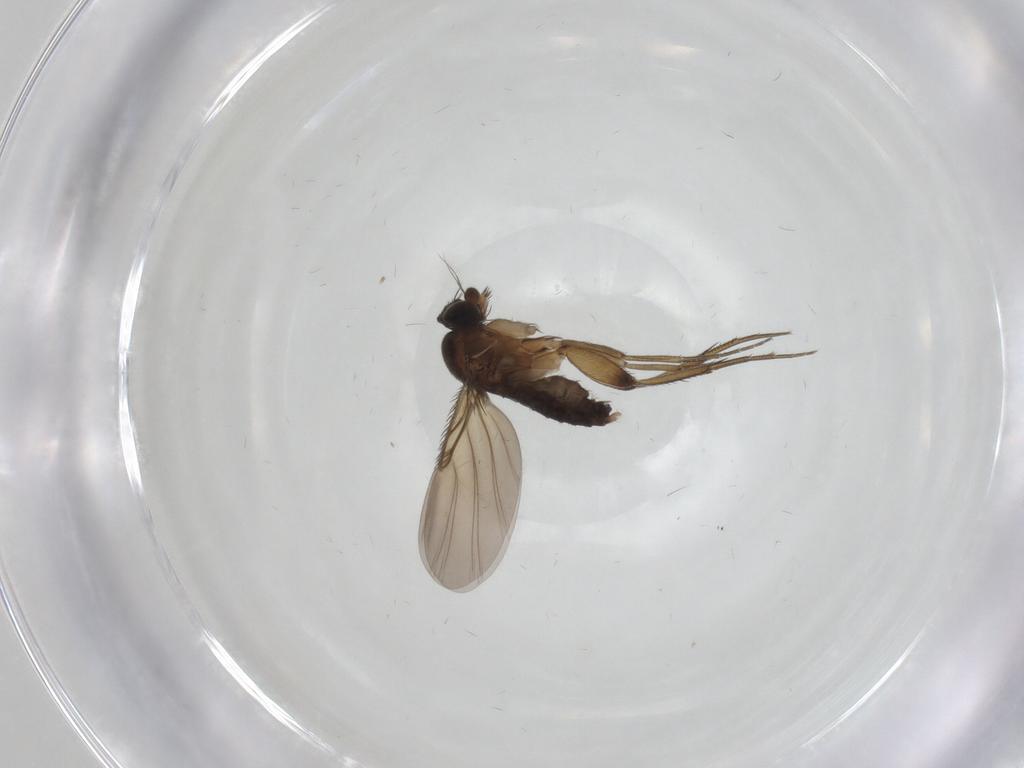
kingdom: Animalia
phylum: Arthropoda
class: Insecta
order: Diptera
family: Phoridae
